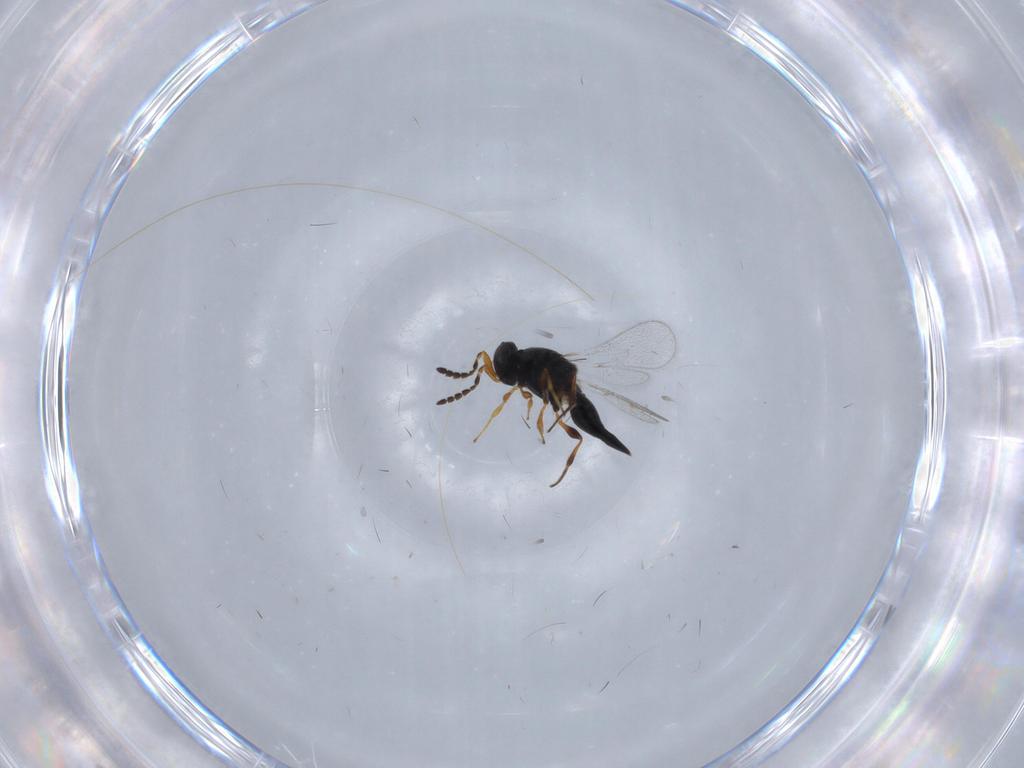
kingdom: Animalia
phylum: Arthropoda
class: Insecta
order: Hymenoptera
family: Platygastridae
